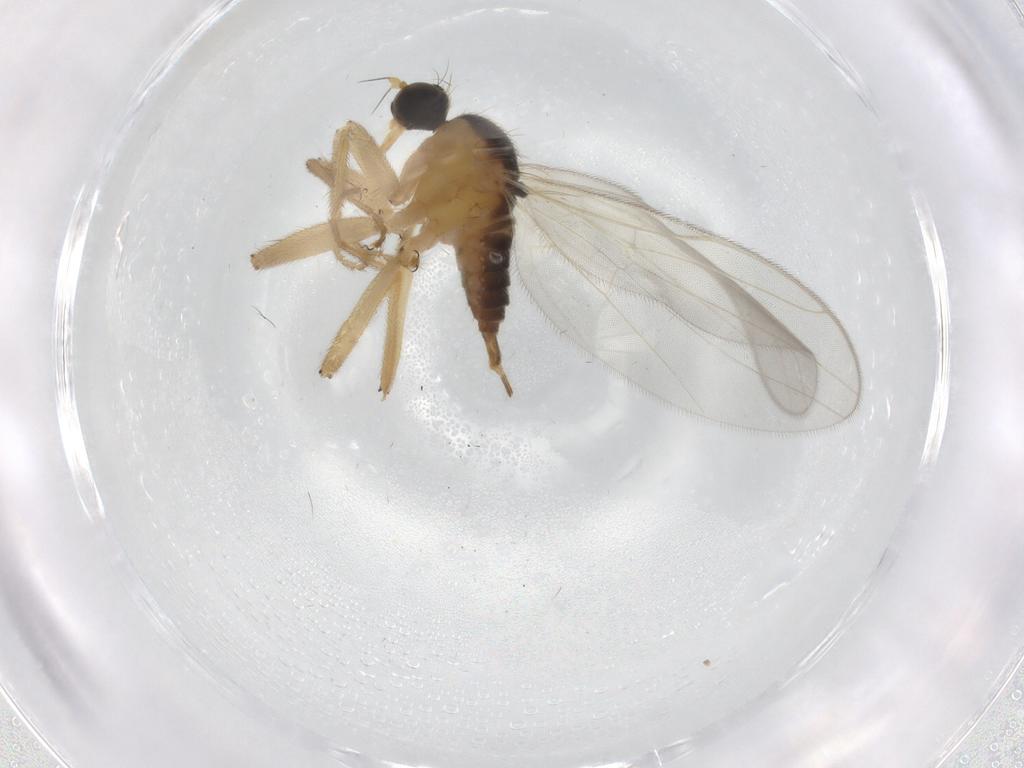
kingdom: Animalia
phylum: Arthropoda
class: Insecta
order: Diptera
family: Hybotidae
